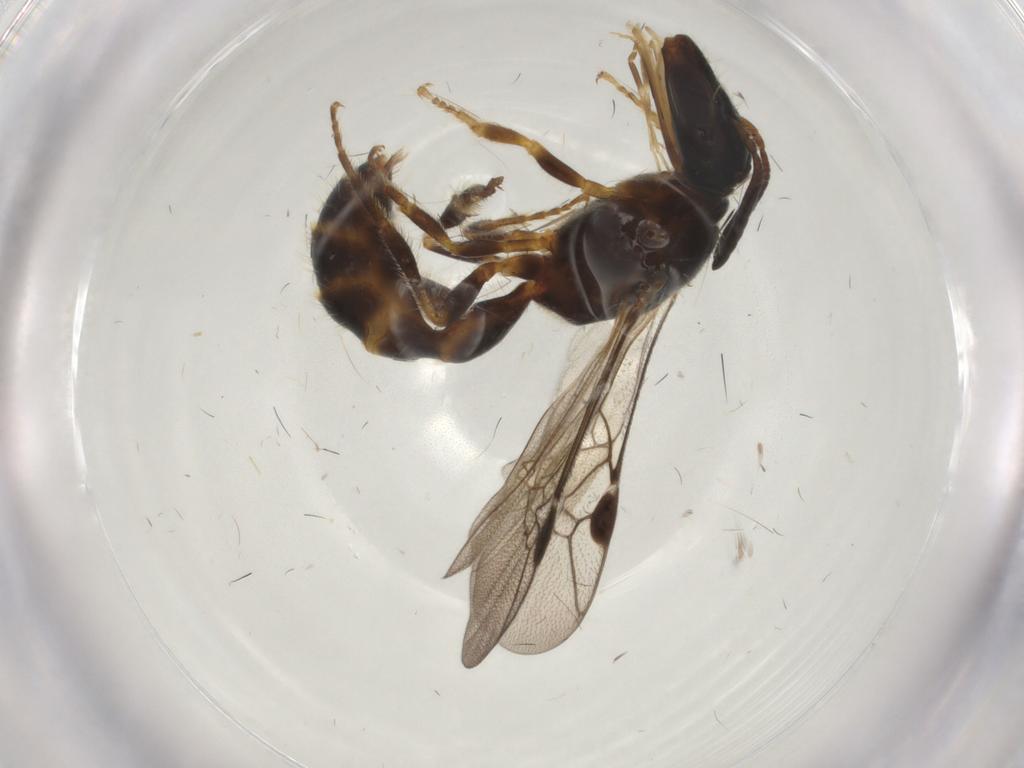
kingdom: Animalia
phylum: Arthropoda
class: Insecta
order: Hymenoptera
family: Colletidae
